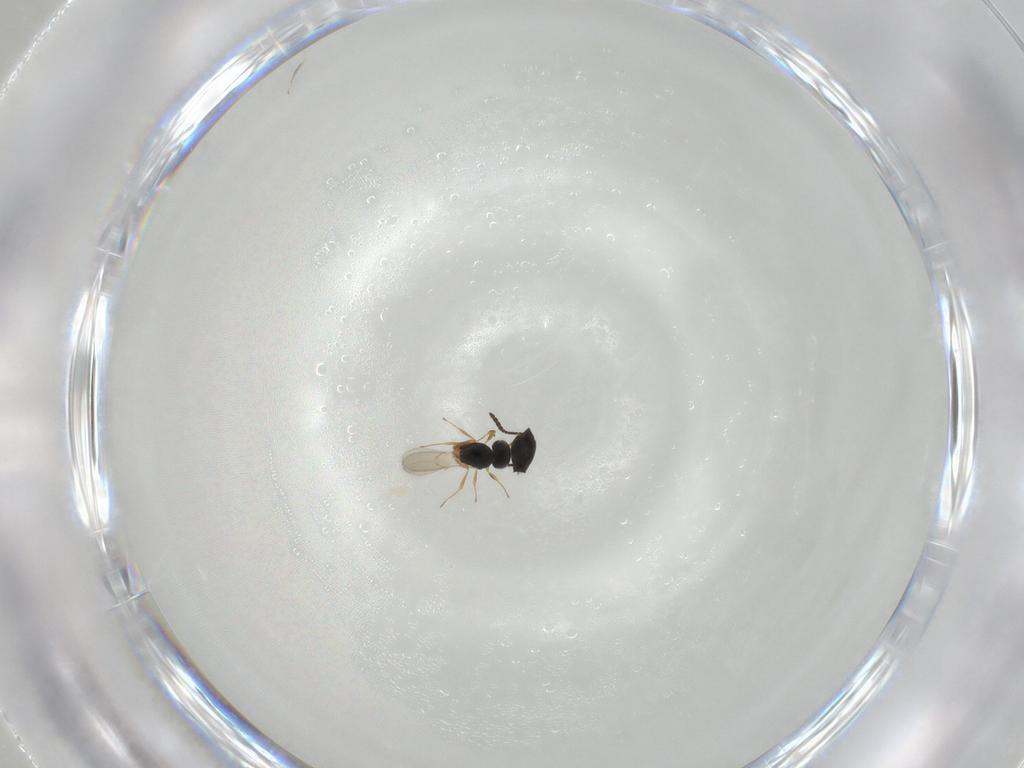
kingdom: Animalia
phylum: Arthropoda
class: Insecta
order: Hymenoptera
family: Scelionidae
